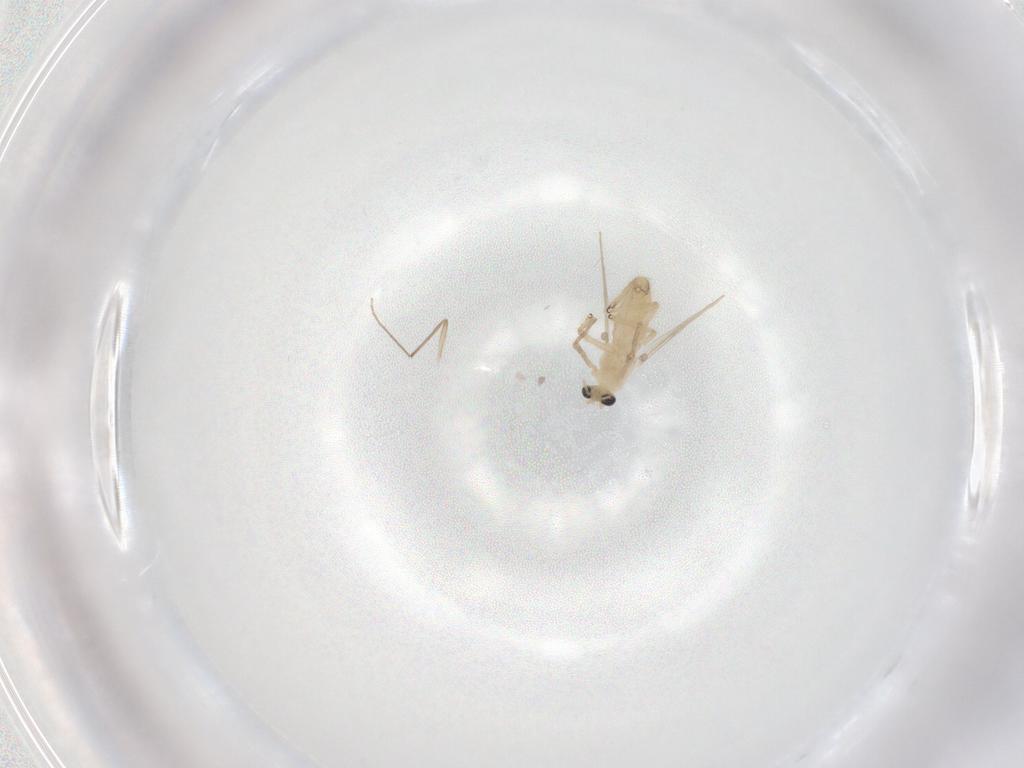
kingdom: Animalia
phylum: Arthropoda
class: Insecta
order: Diptera
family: Chironomidae
